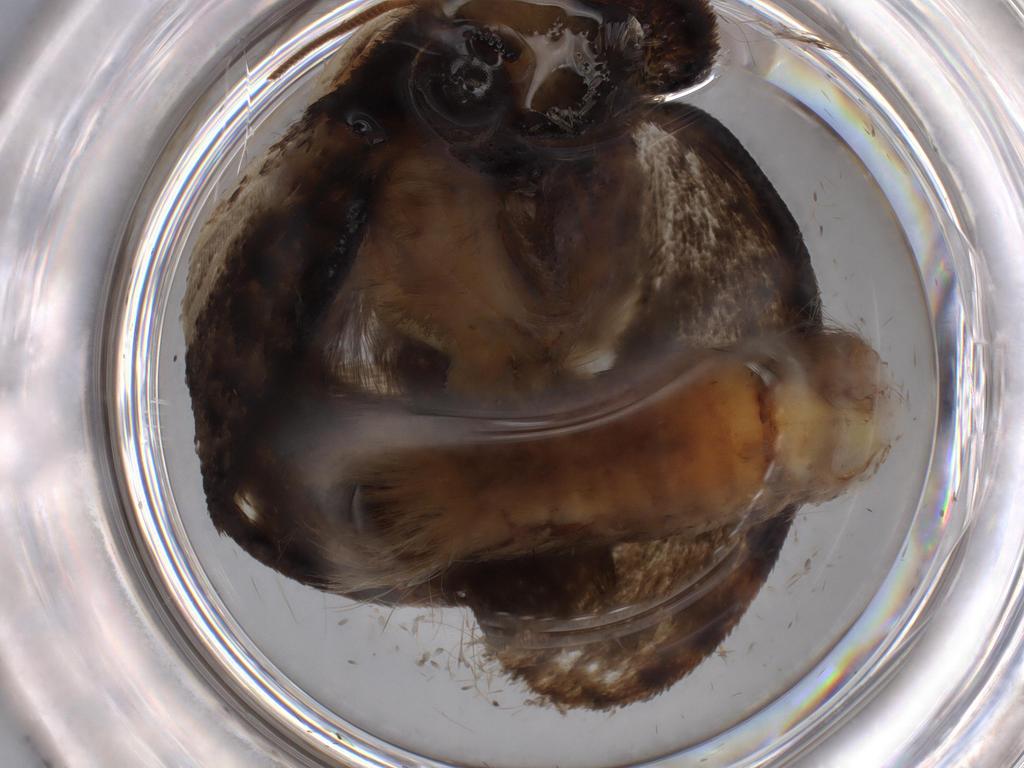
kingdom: Animalia
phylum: Arthropoda
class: Insecta
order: Lepidoptera
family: Tineidae
